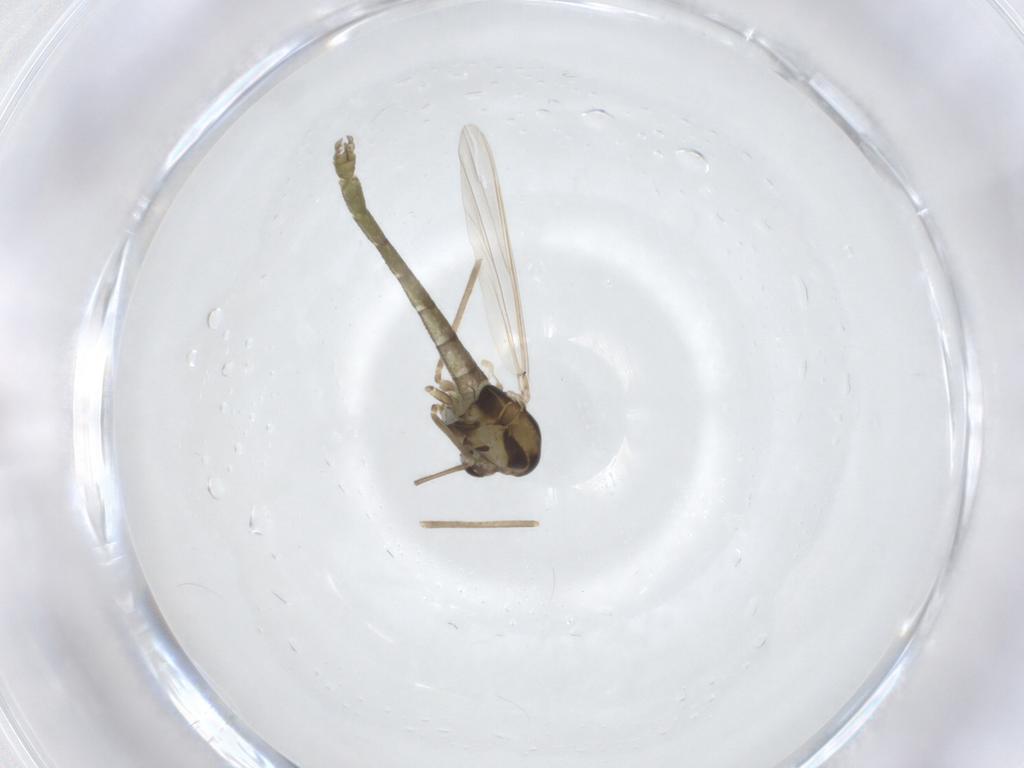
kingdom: Animalia
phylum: Arthropoda
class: Insecta
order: Diptera
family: Chironomidae
